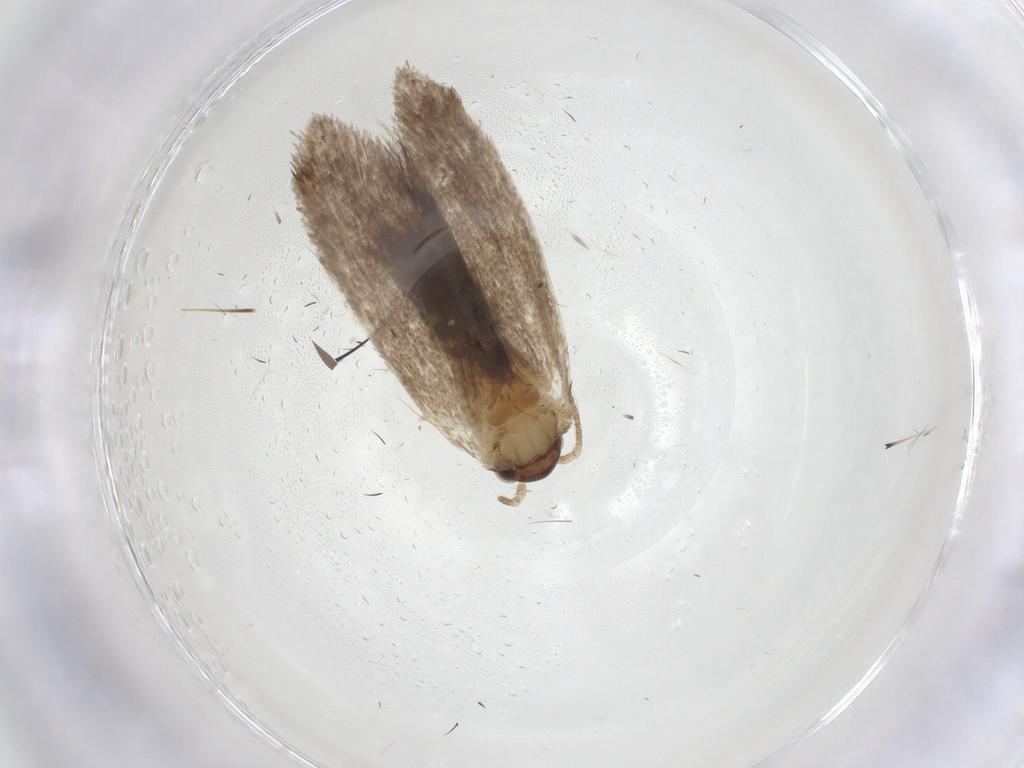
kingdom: Animalia
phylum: Arthropoda
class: Insecta
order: Lepidoptera
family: Dryadaulidae
